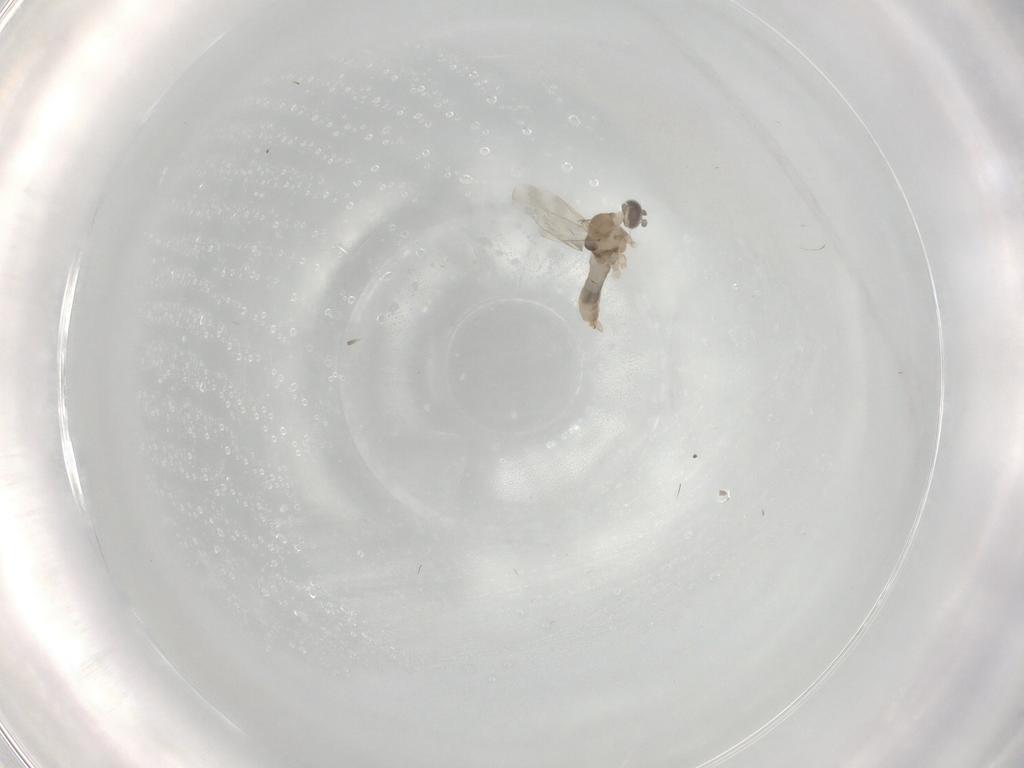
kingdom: Animalia
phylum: Arthropoda
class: Insecta
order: Diptera
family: Cecidomyiidae
